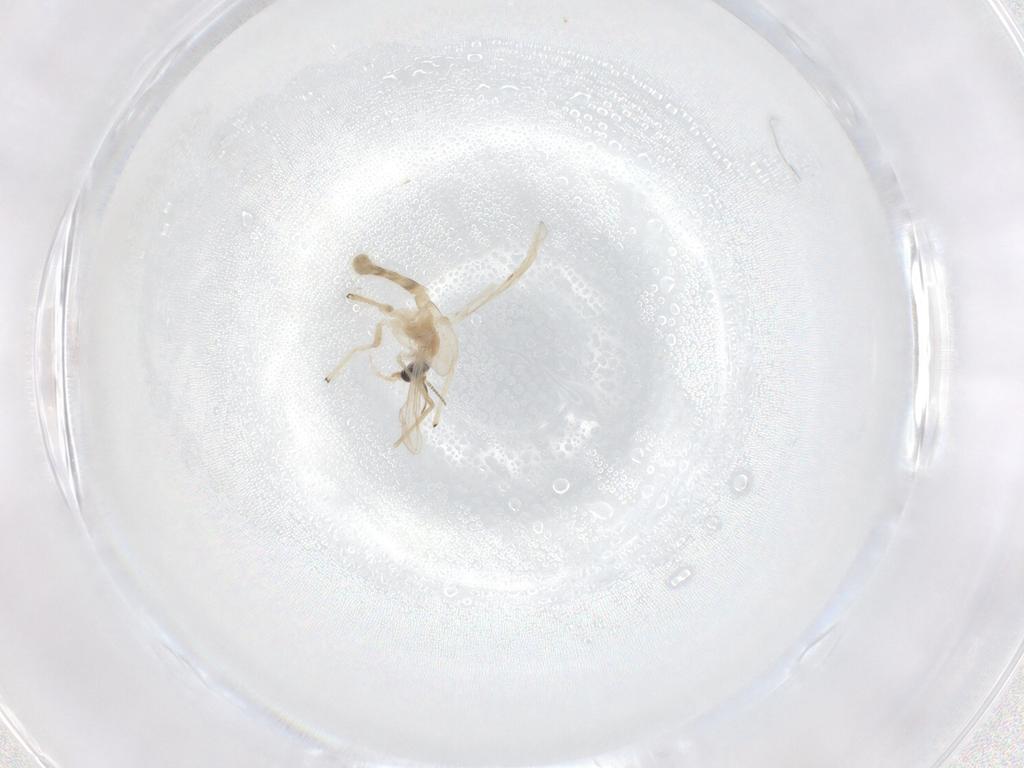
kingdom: Animalia
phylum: Arthropoda
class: Insecta
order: Diptera
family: Chironomidae
